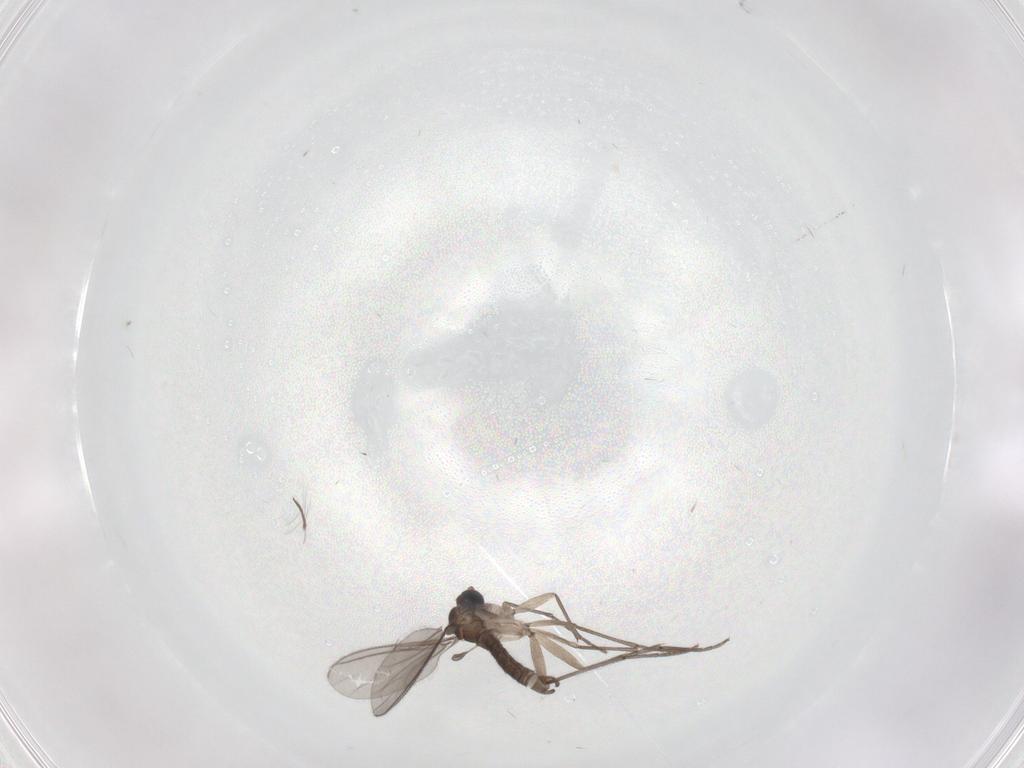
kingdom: Animalia
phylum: Arthropoda
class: Insecta
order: Diptera
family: Sciaridae
